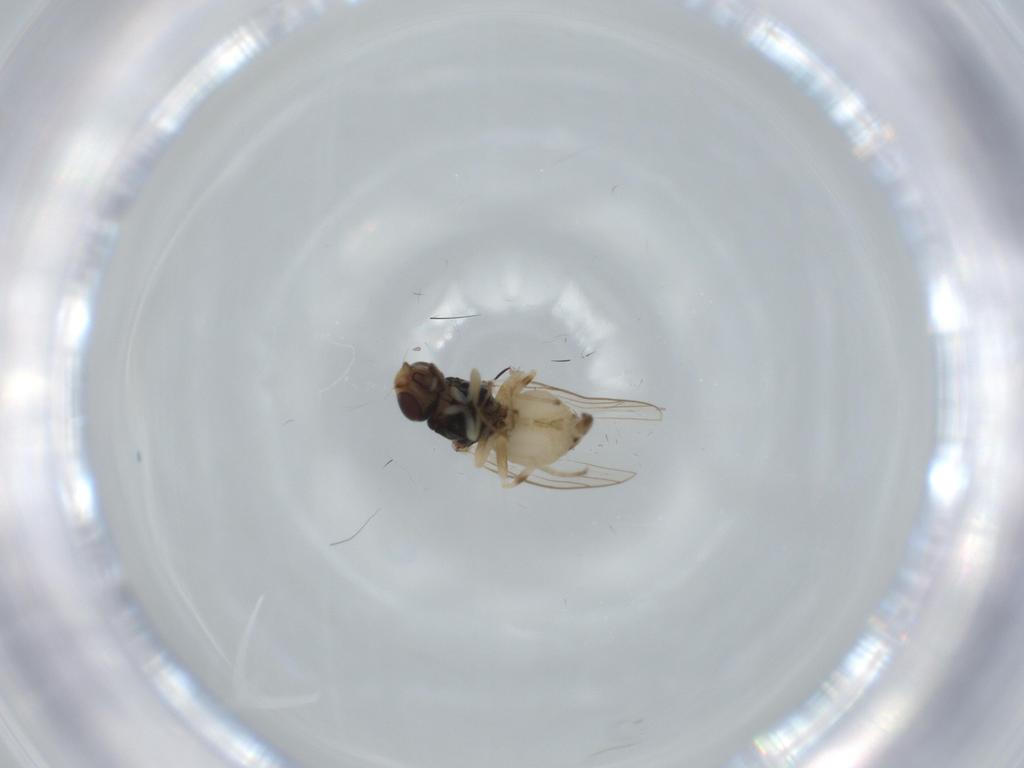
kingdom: Animalia
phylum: Arthropoda
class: Insecta
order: Diptera
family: Chloropidae
